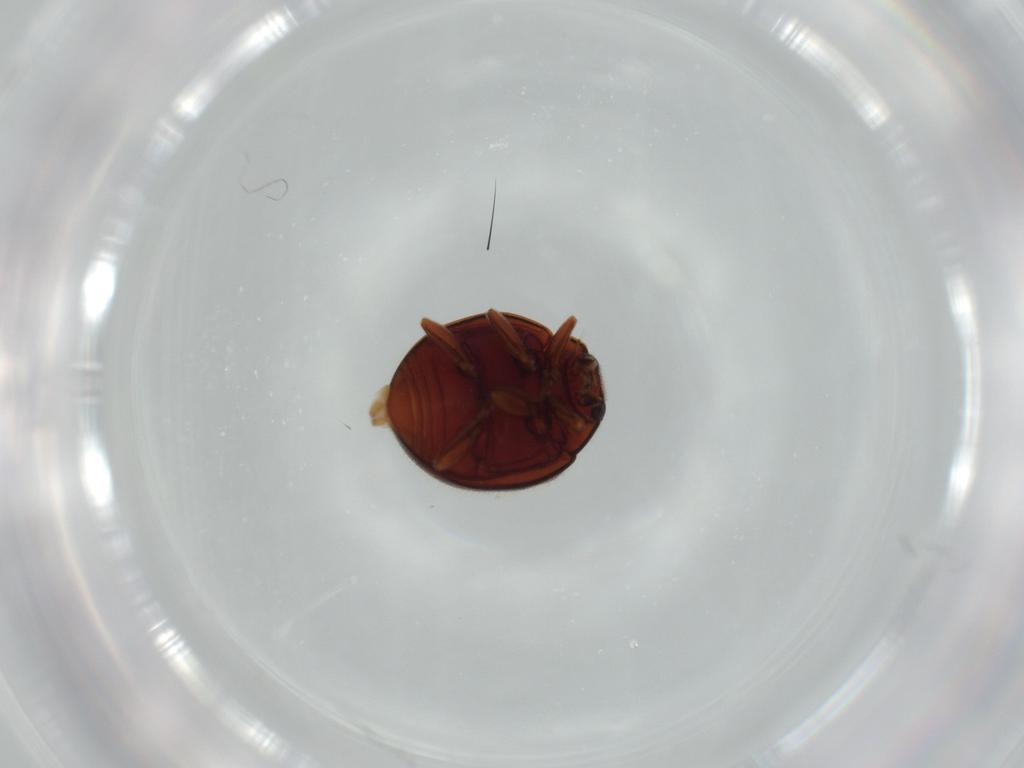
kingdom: Animalia
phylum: Arthropoda
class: Insecta
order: Coleoptera
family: Coccinellidae
